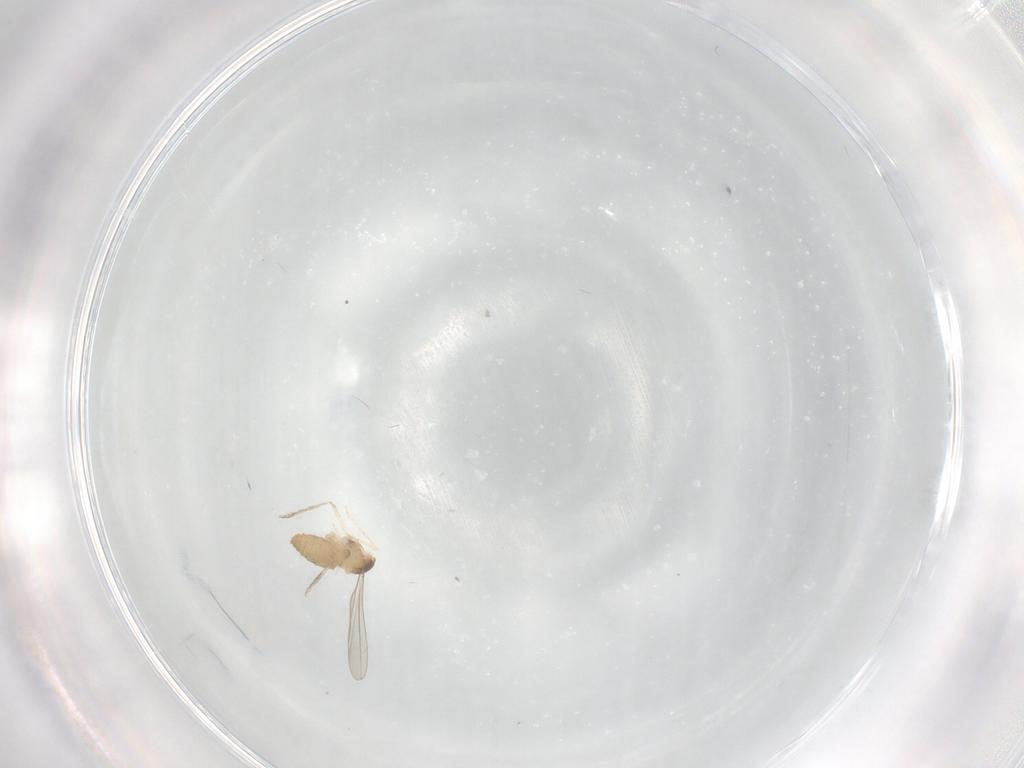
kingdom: Animalia
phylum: Arthropoda
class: Insecta
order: Diptera
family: Cecidomyiidae
